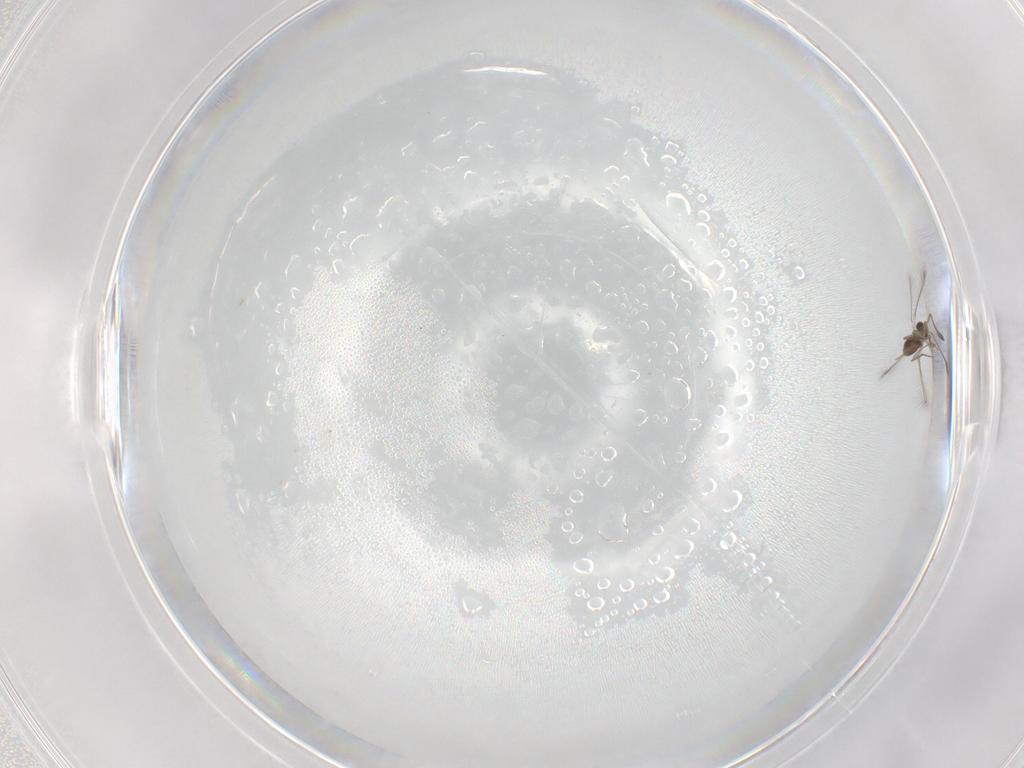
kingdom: Animalia
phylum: Arthropoda
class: Insecta
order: Hymenoptera
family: Mymaridae
